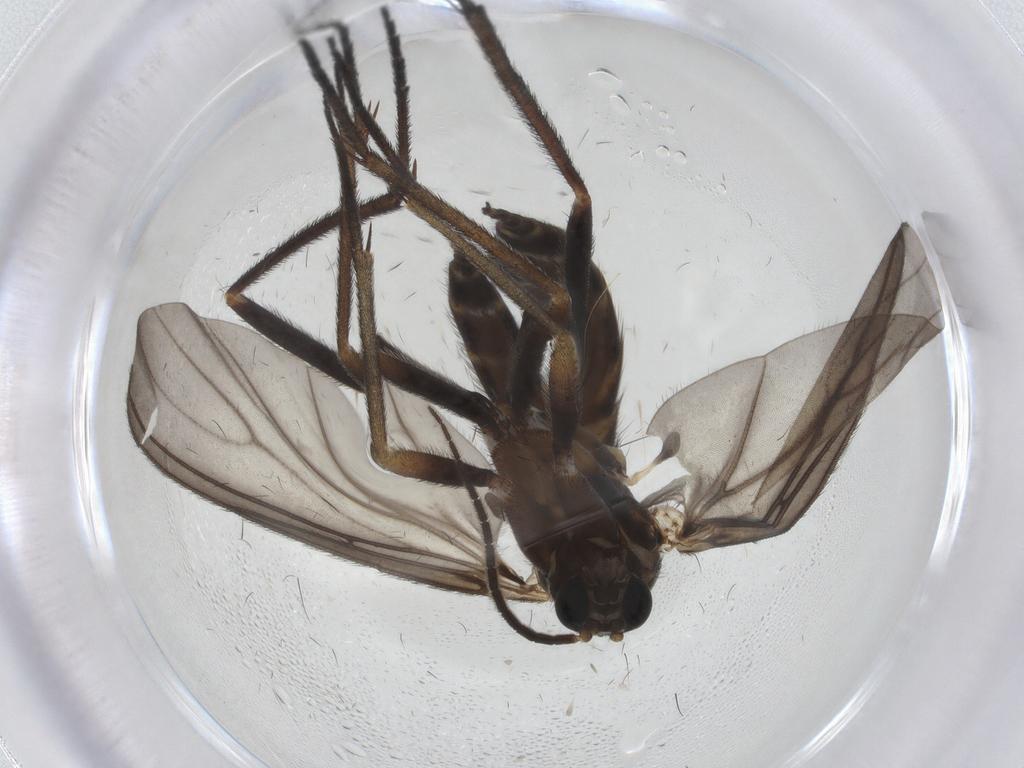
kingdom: Animalia
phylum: Arthropoda
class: Insecta
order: Diptera
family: Sciaridae
